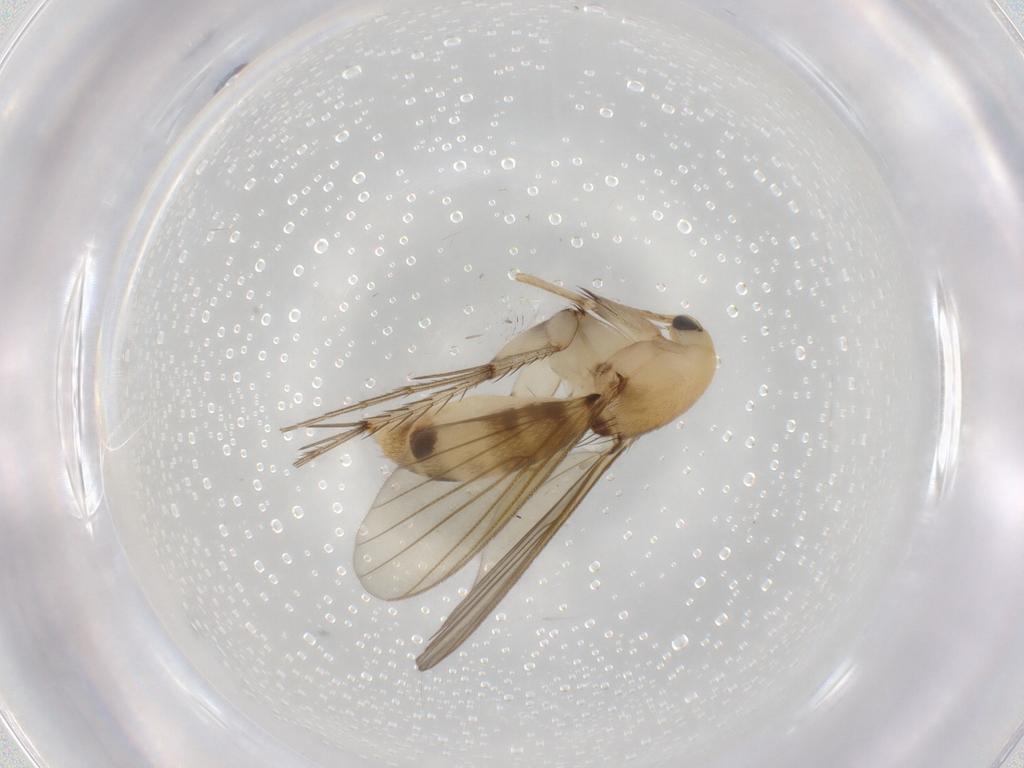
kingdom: Animalia
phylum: Arthropoda
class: Insecta
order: Diptera
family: Mycetophilidae
